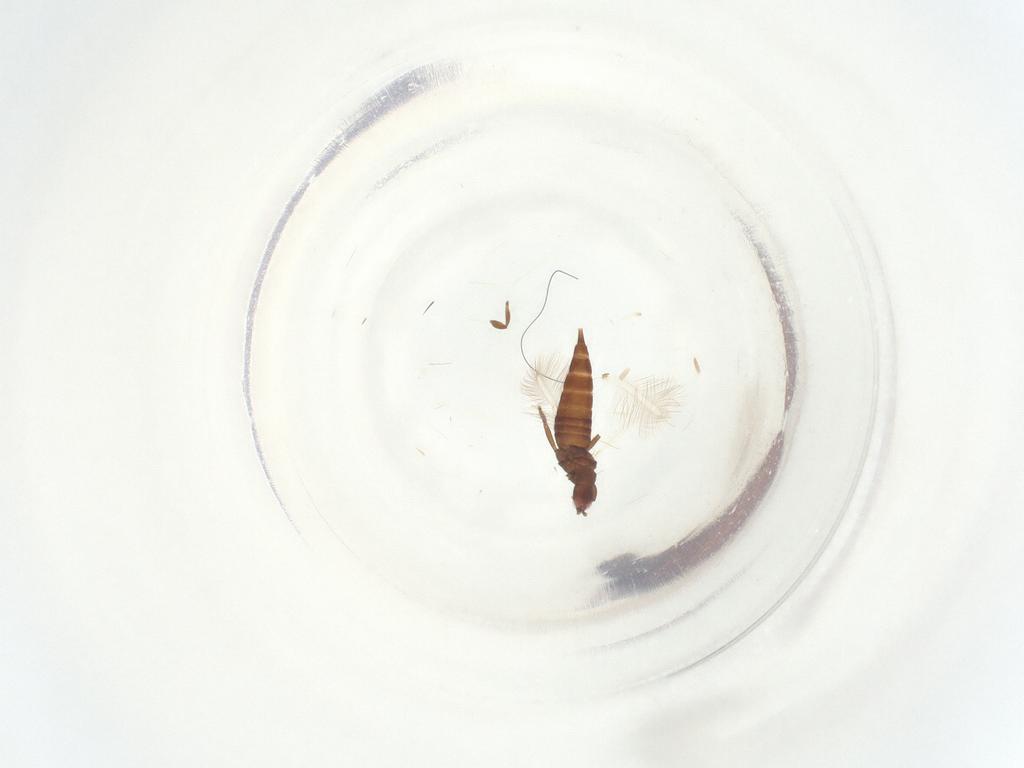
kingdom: Animalia
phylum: Arthropoda
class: Insecta
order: Thysanoptera
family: Phlaeothripidae
